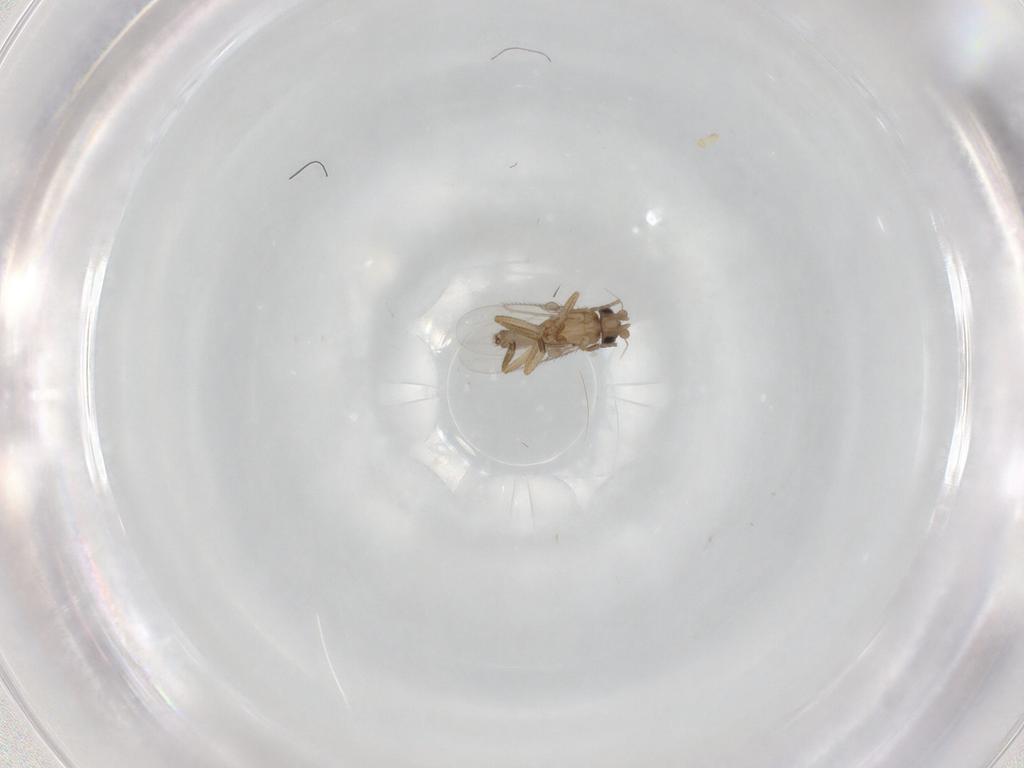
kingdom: Animalia
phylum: Arthropoda
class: Insecta
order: Diptera
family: Phoridae
